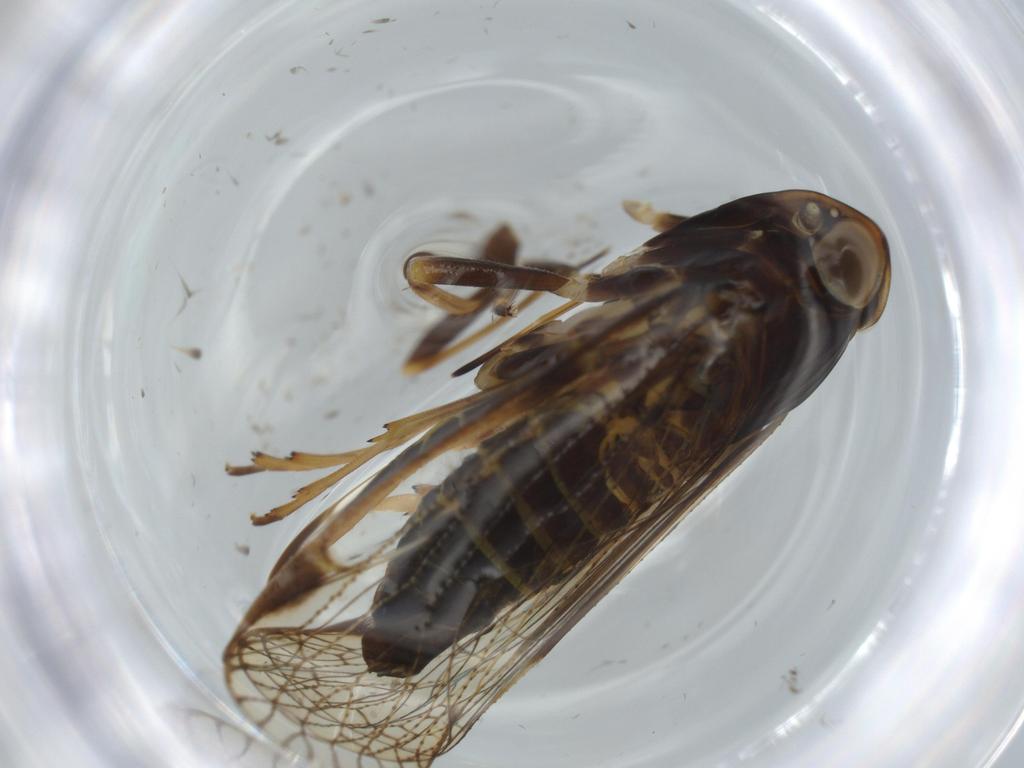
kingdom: Animalia
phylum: Arthropoda
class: Insecta
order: Hemiptera
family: Cixiidae
